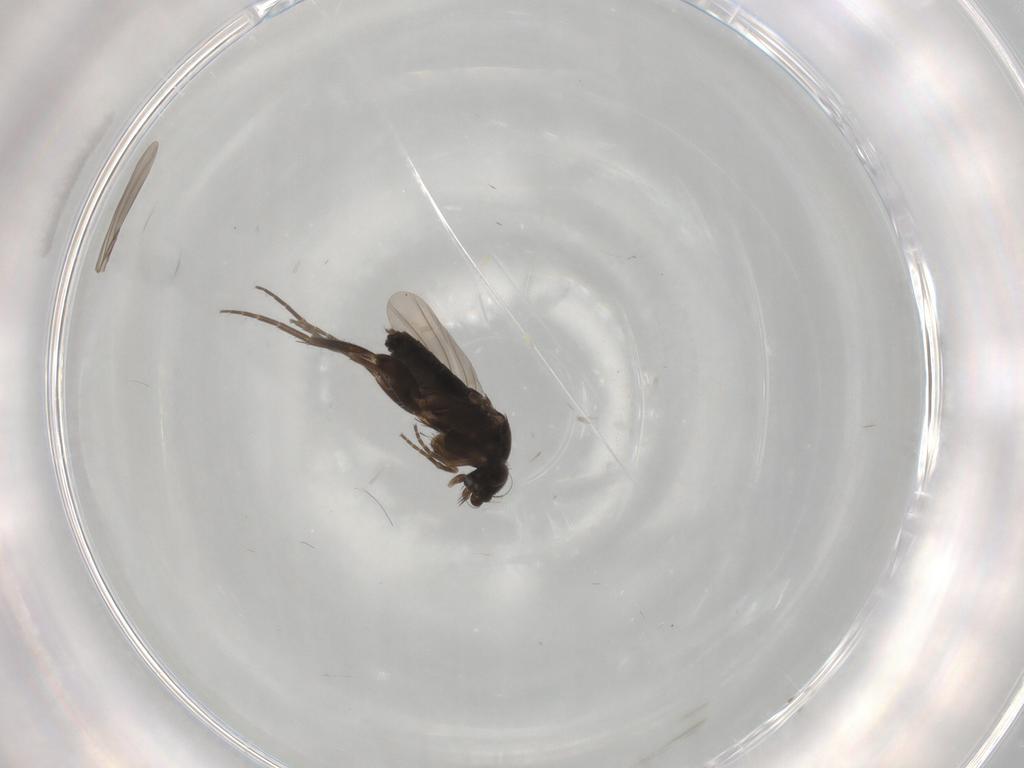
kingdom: Animalia
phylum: Arthropoda
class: Insecta
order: Diptera
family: Phoridae
